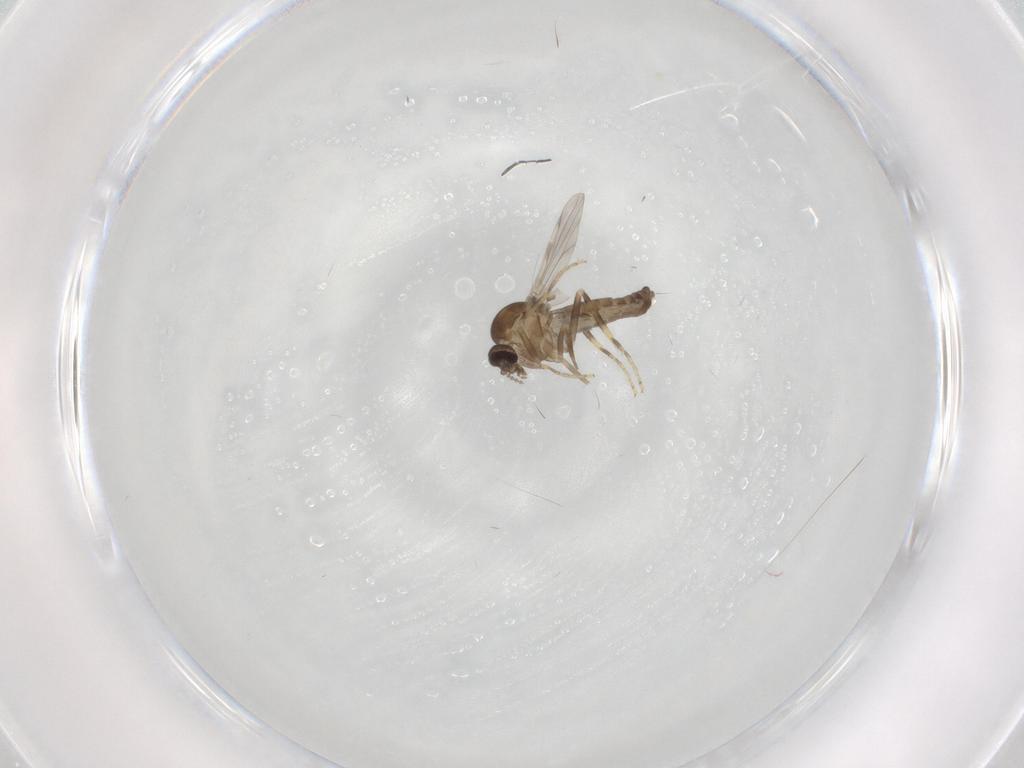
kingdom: Animalia
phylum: Arthropoda
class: Insecta
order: Diptera
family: Ceratopogonidae
